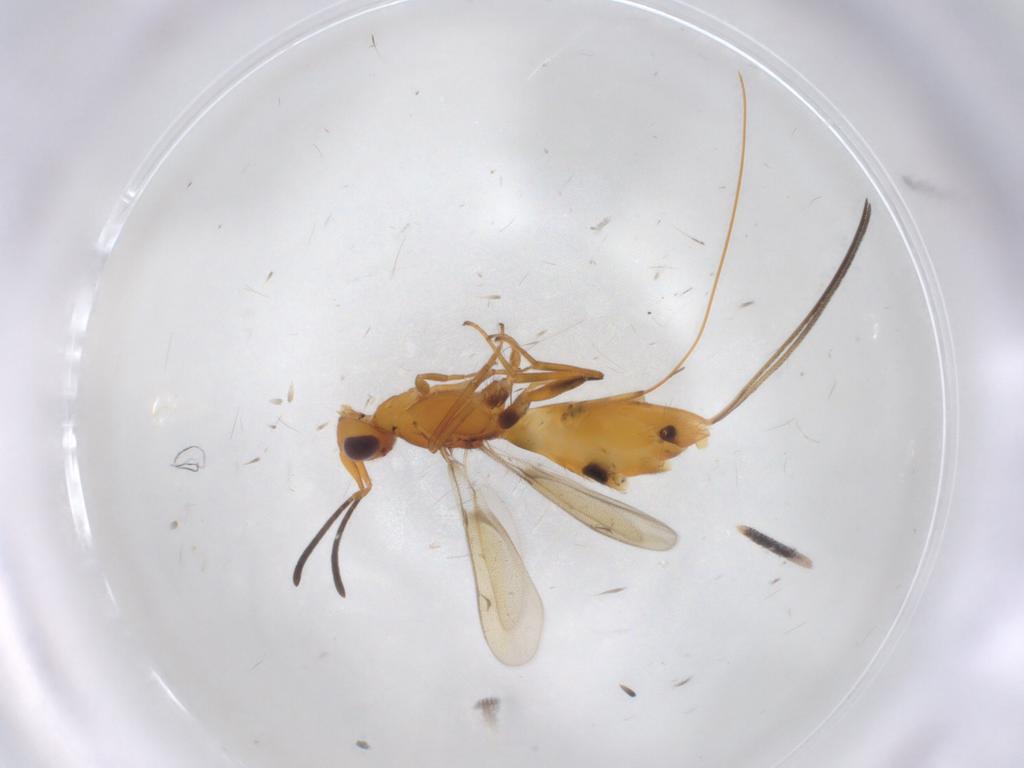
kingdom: Animalia
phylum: Arthropoda
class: Insecta
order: Hymenoptera
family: Eupelmidae
